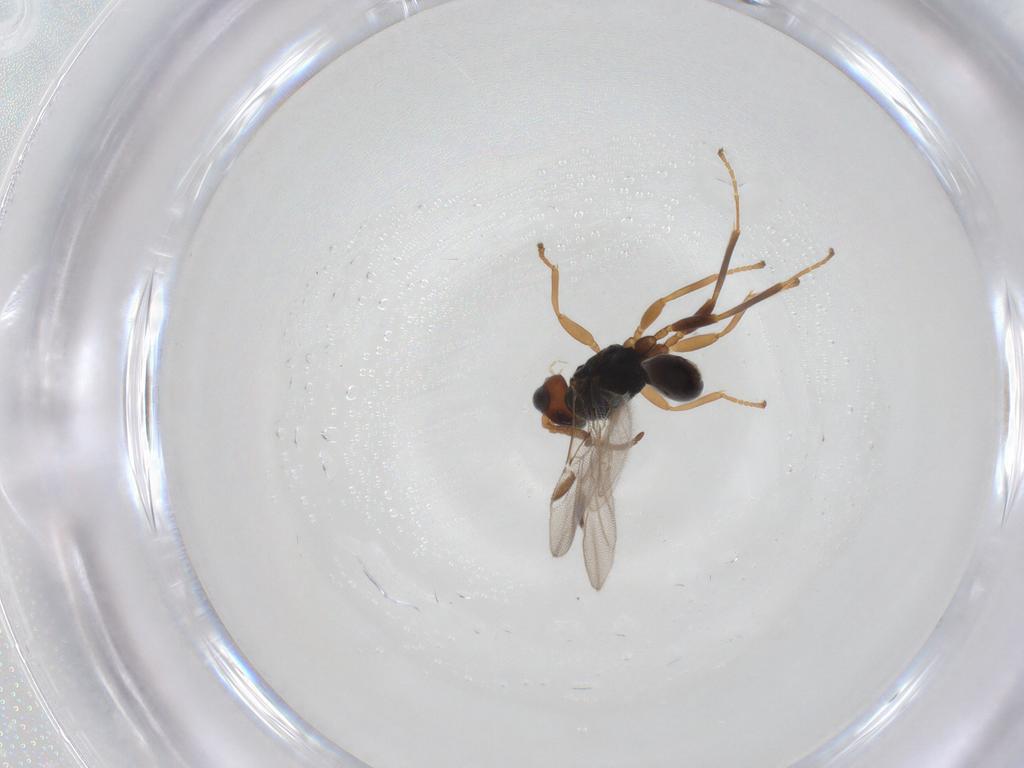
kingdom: Animalia
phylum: Arthropoda
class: Insecta
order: Hymenoptera
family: Braconidae
